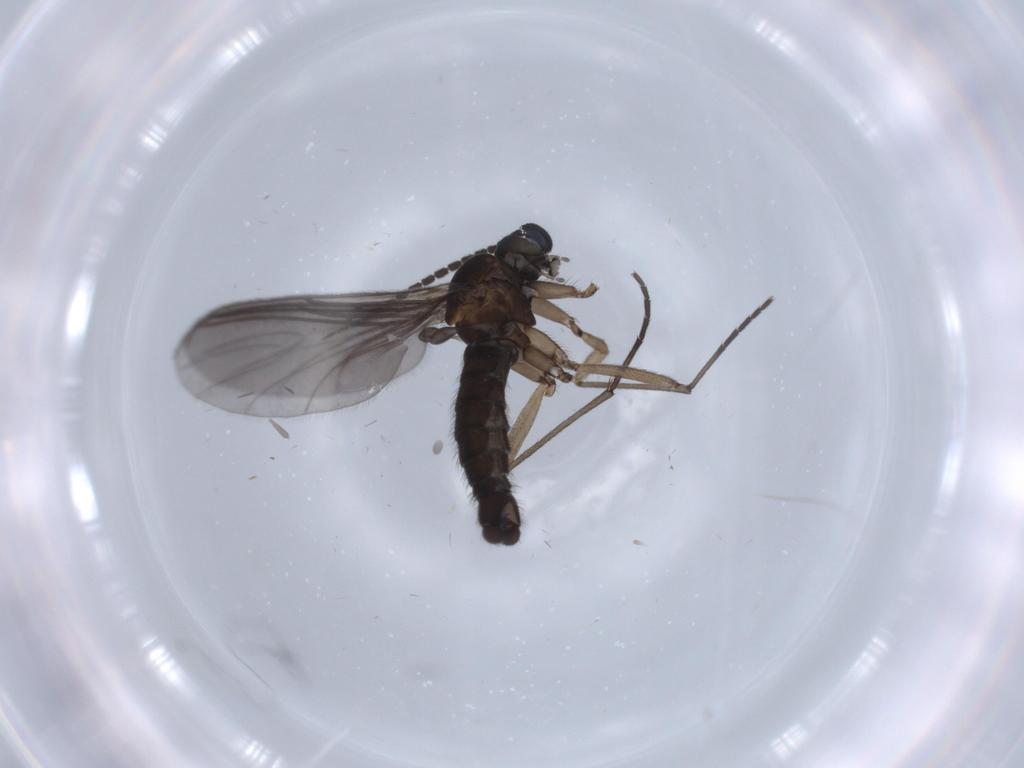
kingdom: Animalia
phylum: Arthropoda
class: Insecta
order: Diptera
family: Sciaridae
